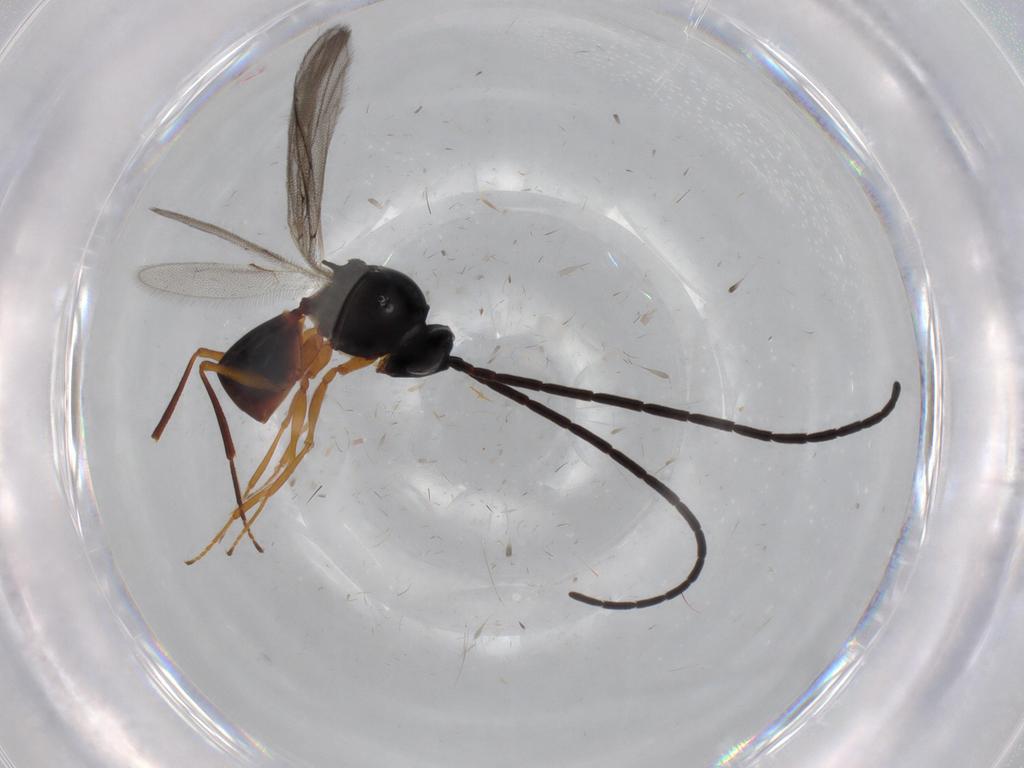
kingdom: Animalia
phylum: Arthropoda
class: Insecta
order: Hymenoptera
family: Figitidae
